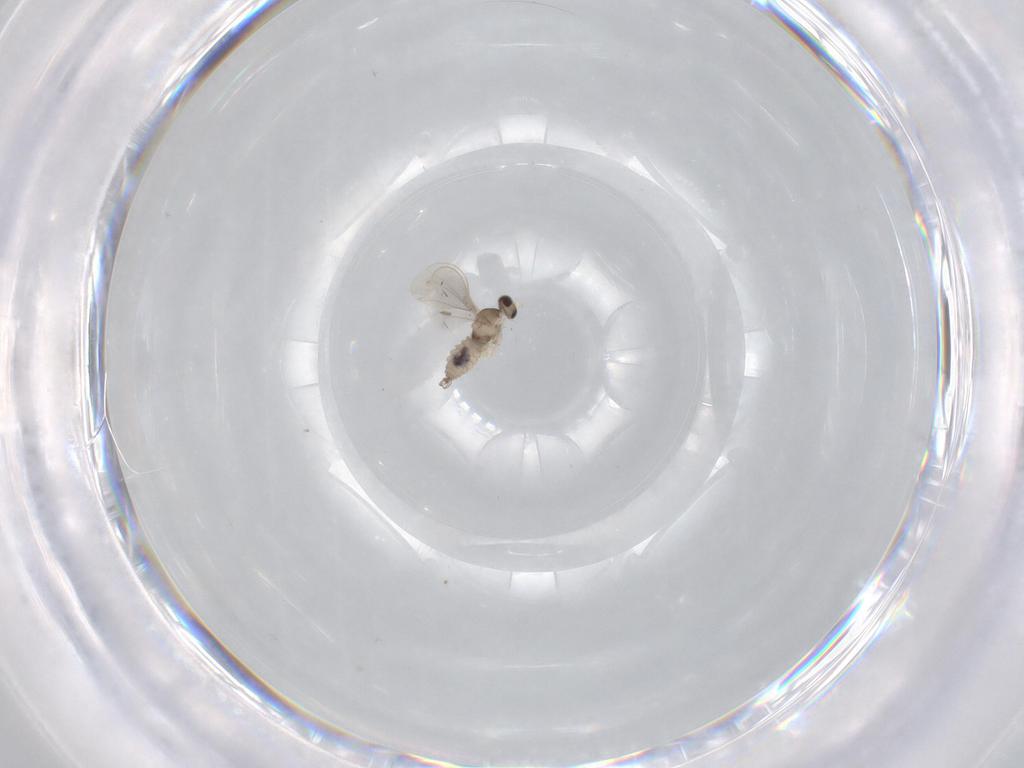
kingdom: Animalia
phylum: Arthropoda
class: Insecta
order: Diptera
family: Cecidomyiidae
